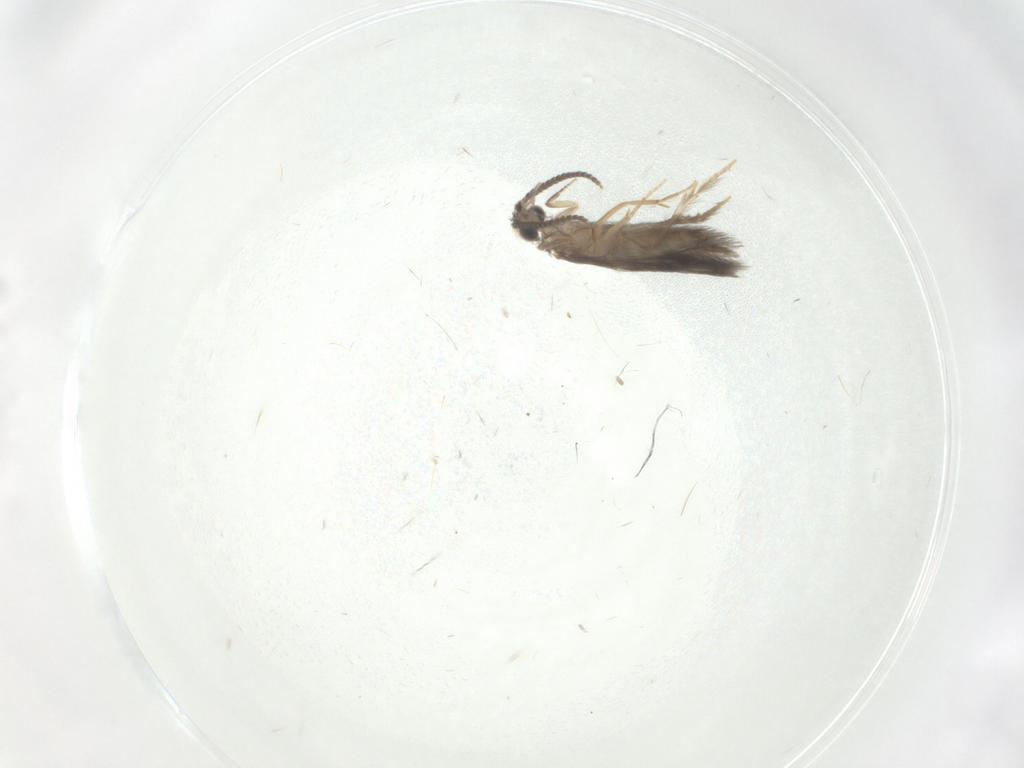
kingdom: Animalia
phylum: Arthropoda
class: Insecta
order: Trichoptera
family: Hydroptilidae
